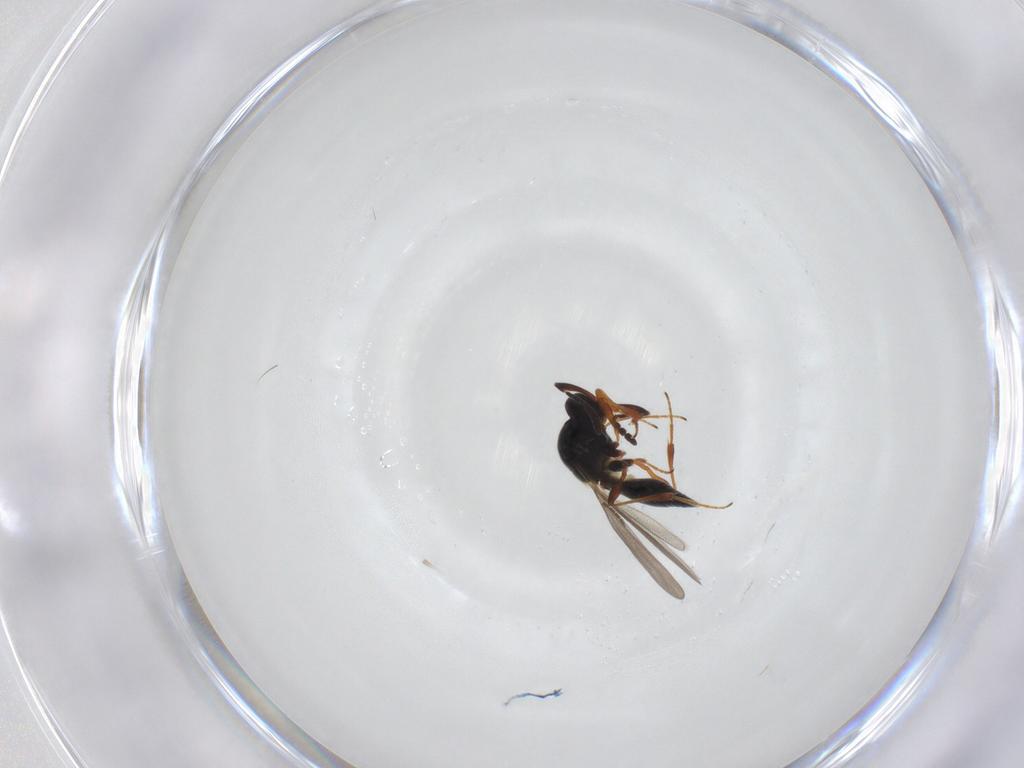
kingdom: Animalia
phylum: Arthropoda
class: Insecta
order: Hymenoptera
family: Platygastridae
